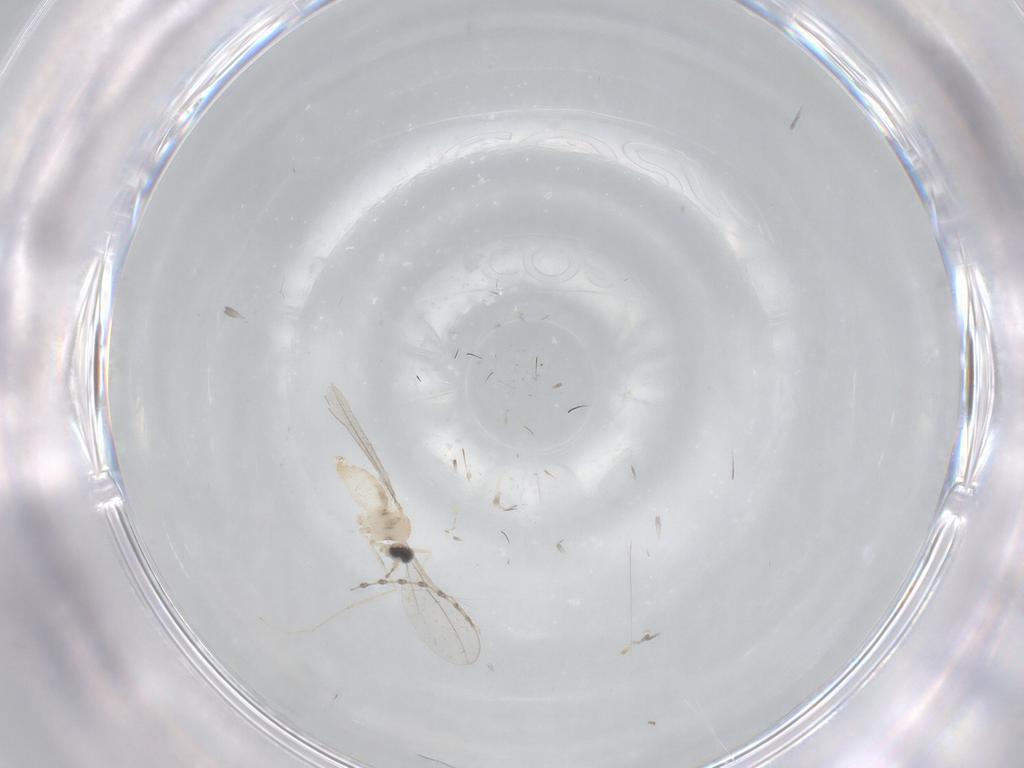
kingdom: Animalia
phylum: Arthropoda
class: Insecta
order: Diptera
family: Cecidomyiidae
